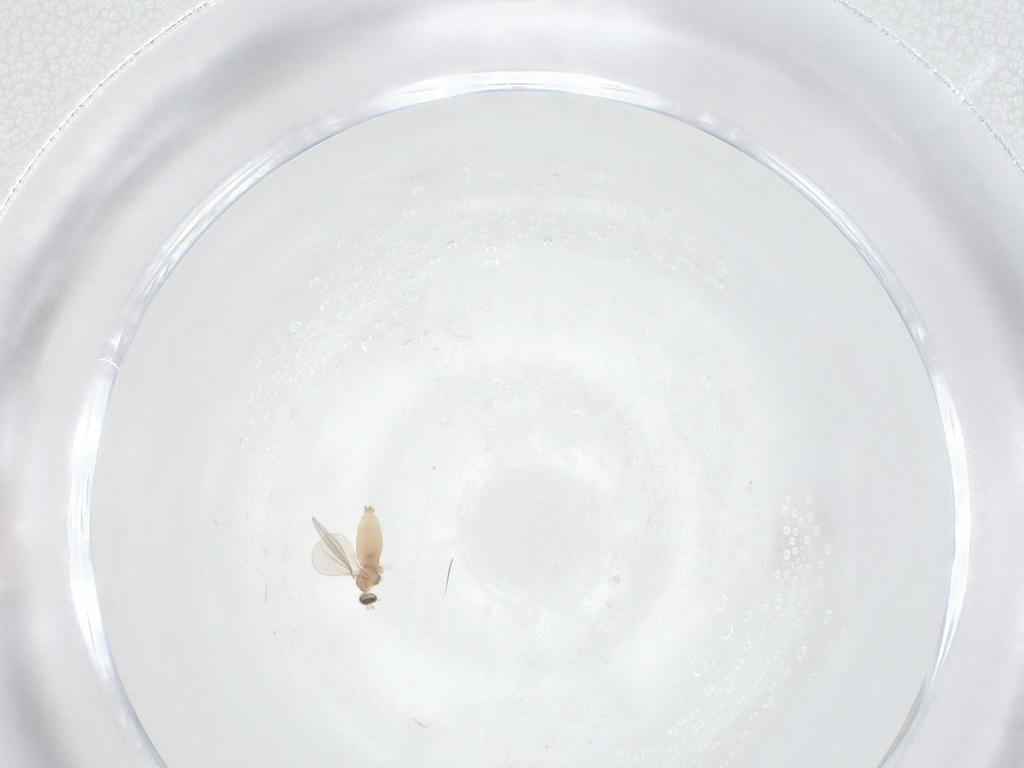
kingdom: Animalia
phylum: Arthropoda
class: Insecta
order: Diptera
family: Cecidomyiidae
